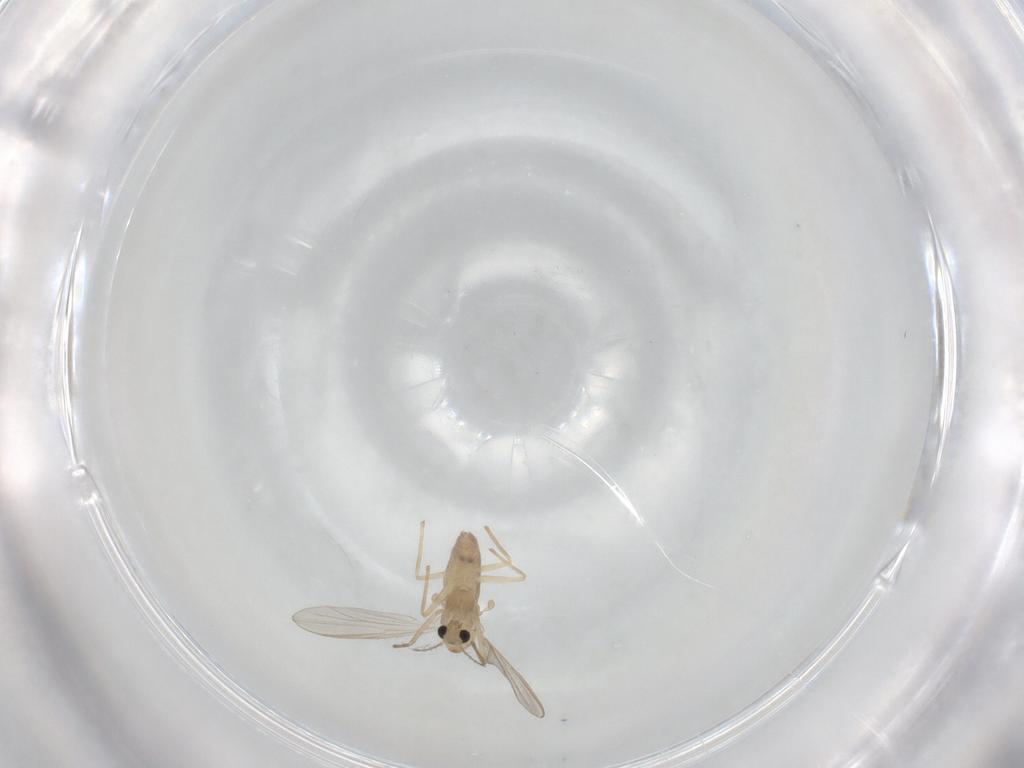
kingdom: Animalia
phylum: Arthropoda
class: Insecta
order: Diptera
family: Chironomidae
